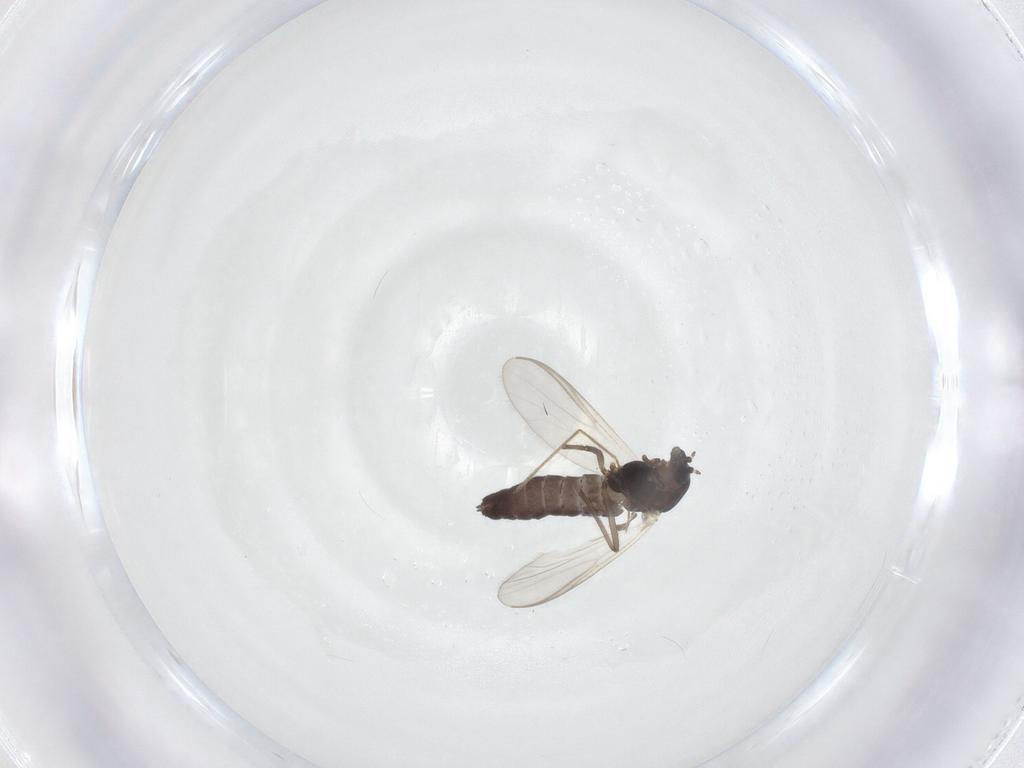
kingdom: Animalia
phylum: Arthropoda
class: Insecta
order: Diptera
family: Chironomidae
